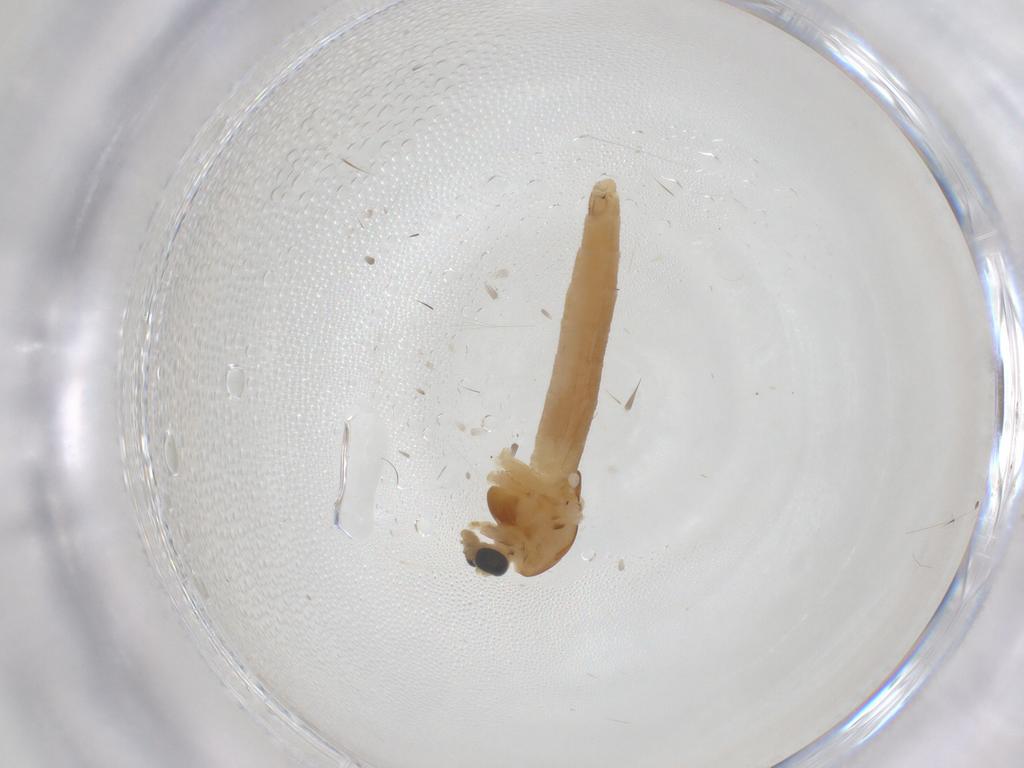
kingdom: Animalia
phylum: Arthropoda
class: Insecta
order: Diptera
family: Chironomidae
